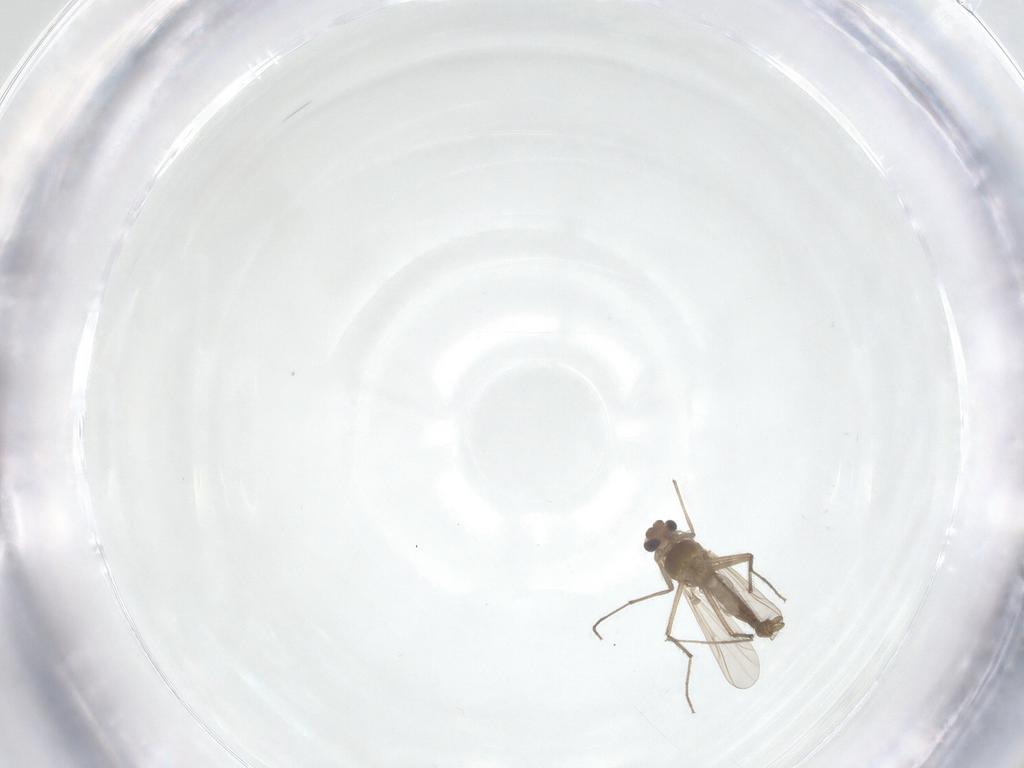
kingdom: Animalia
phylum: Arthropoda
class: Insecta
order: Diptera
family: Chironomidae
